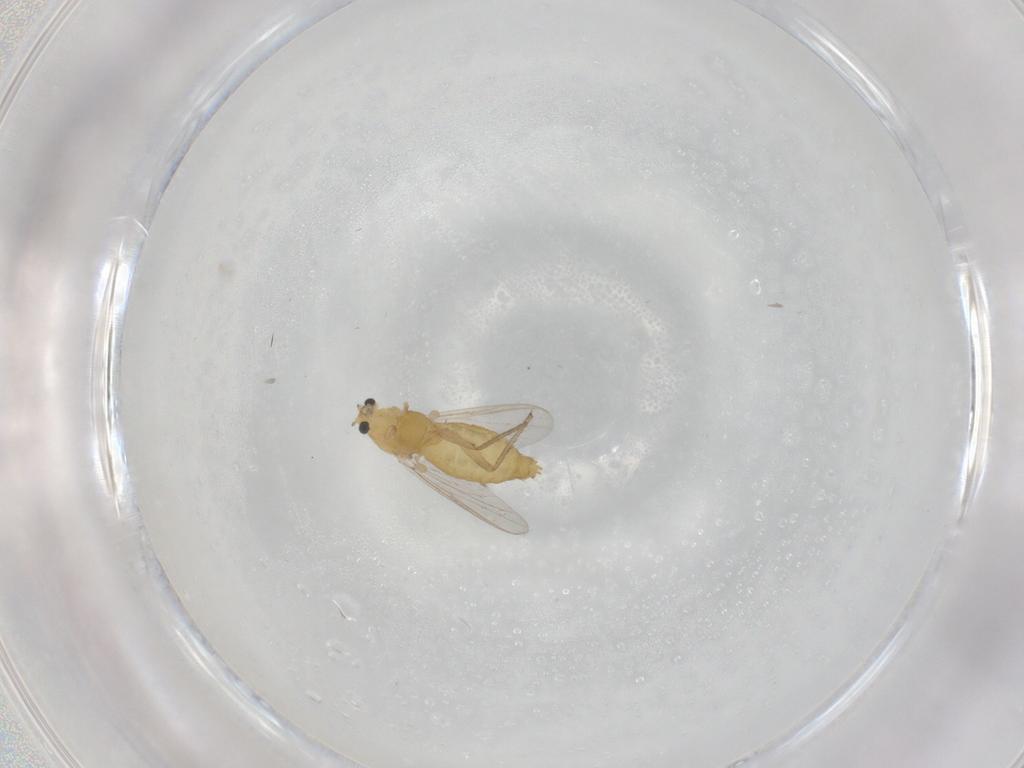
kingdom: Animalia
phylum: Arthropoda
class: Insecta
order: Diptera
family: Chironomidae
